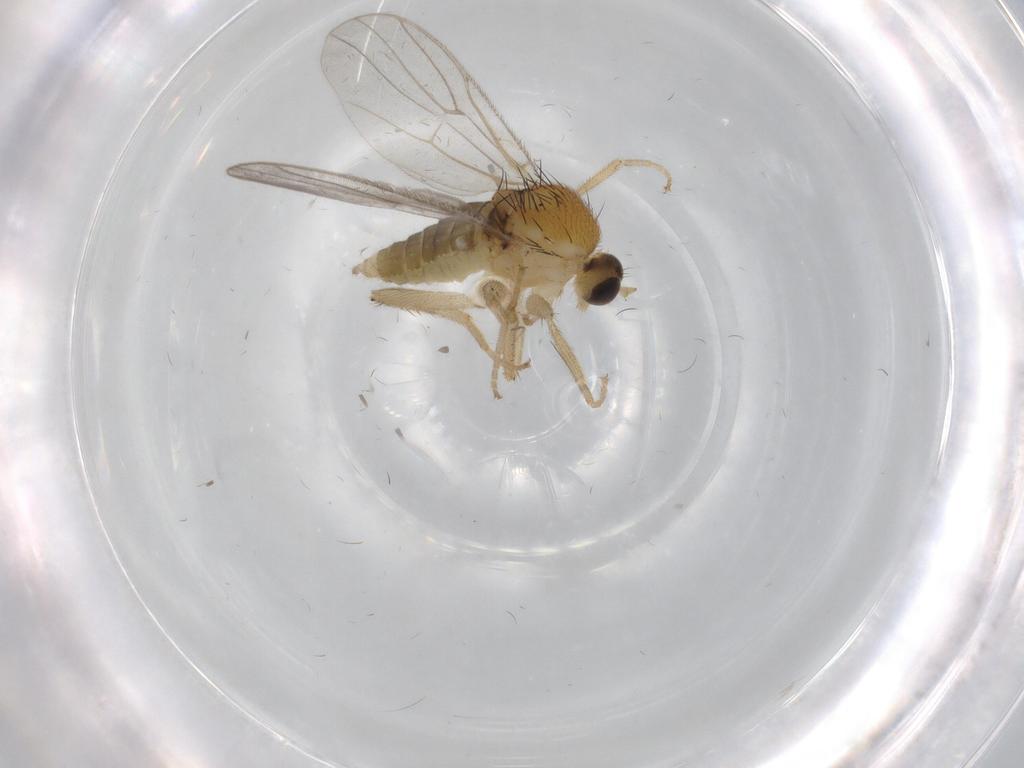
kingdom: Animalia
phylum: Arthropoda
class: Insecta
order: Diptera
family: Hybotidae
